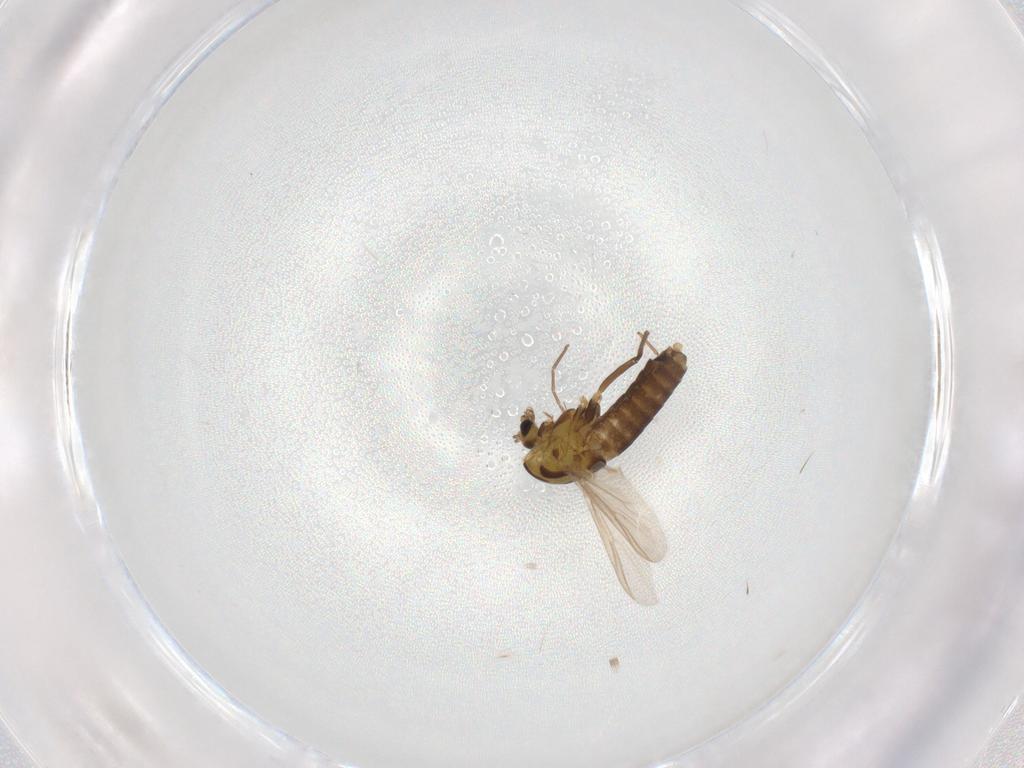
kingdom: Animalia
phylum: Arthropoda
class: Insecta
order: Diptera
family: Chironomidae
